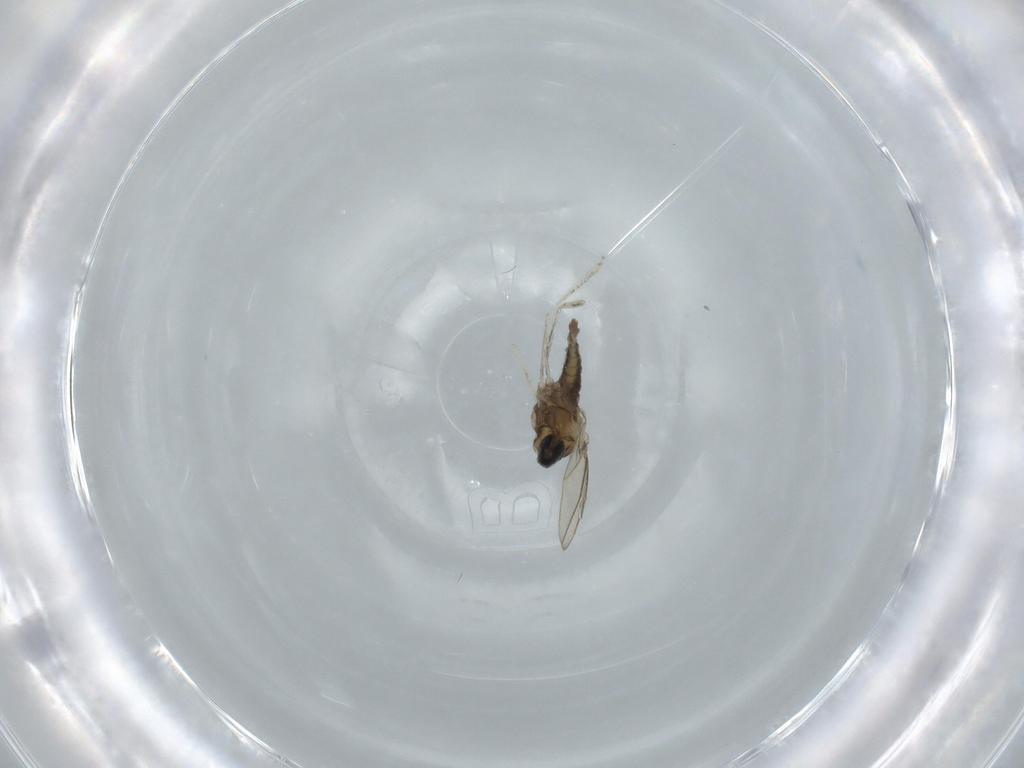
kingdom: Animalia
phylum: Arthropoda
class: Insecta
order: Diptera
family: Cecidomyiidae
